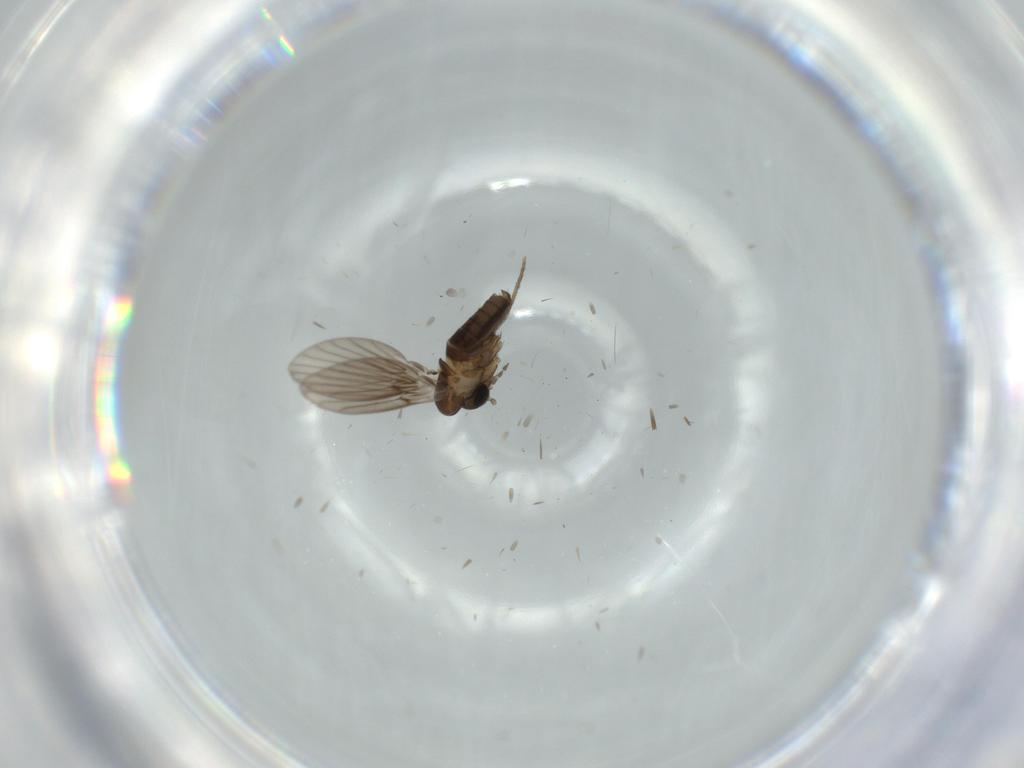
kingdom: Animalia
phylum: Arthropoda
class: Insecta
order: Diptera
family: Psychodidae
